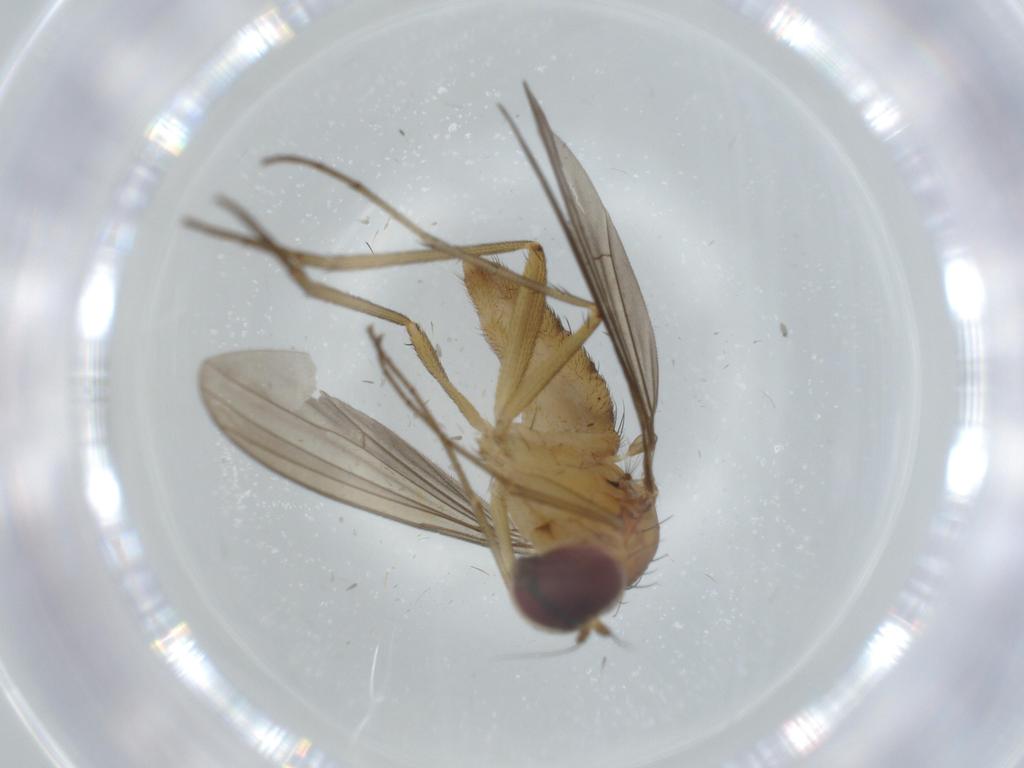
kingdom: Animalia
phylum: Arthropoda
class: Insecta
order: Diptera
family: Dolichopodidae
